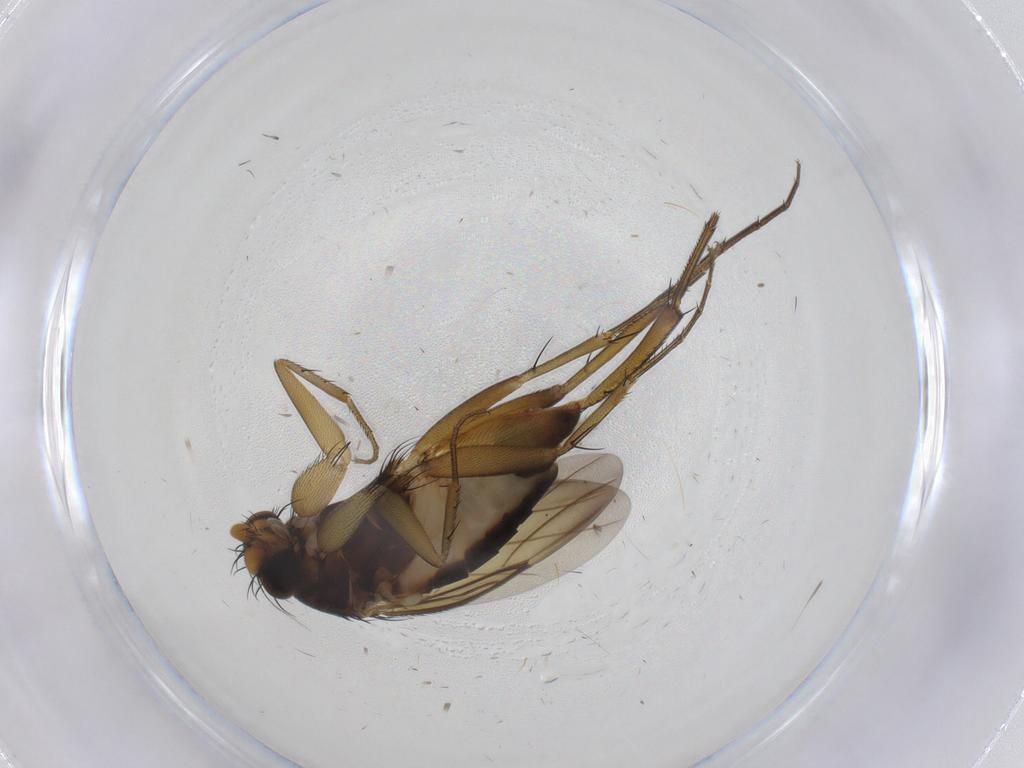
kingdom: Animalia
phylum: Arthropoda
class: Insecta
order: Diptera
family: Phoridae
